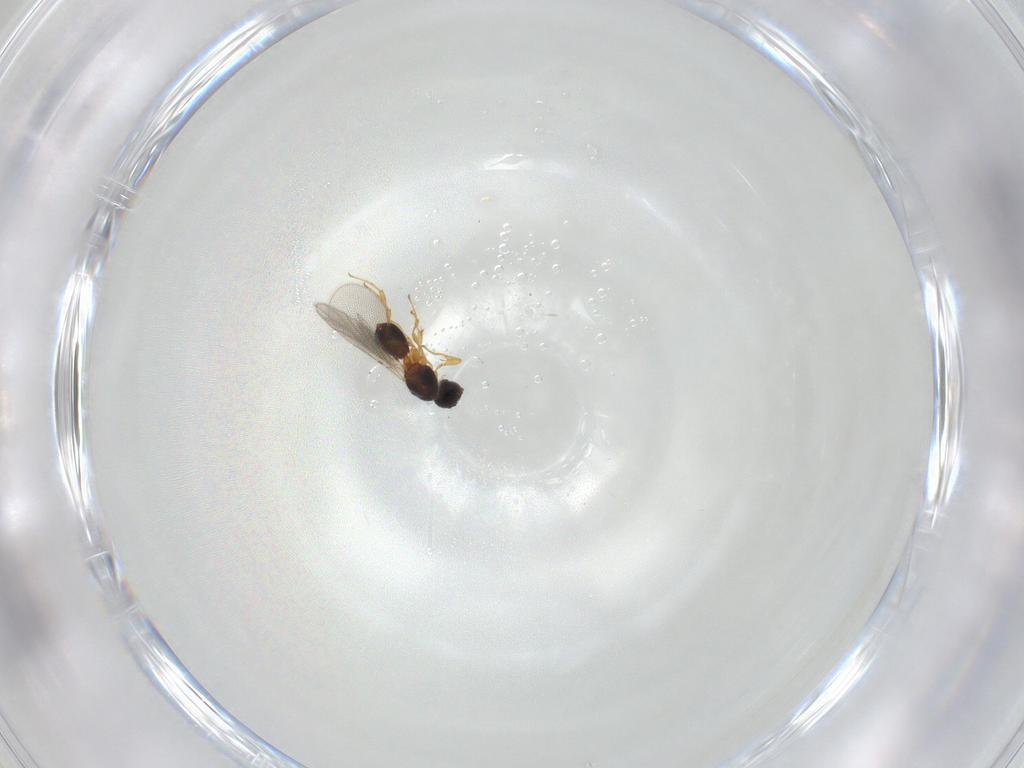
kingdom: Animalia
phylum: Arthropoda
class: Insecta
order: Hymenoptera
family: Diapriidae
